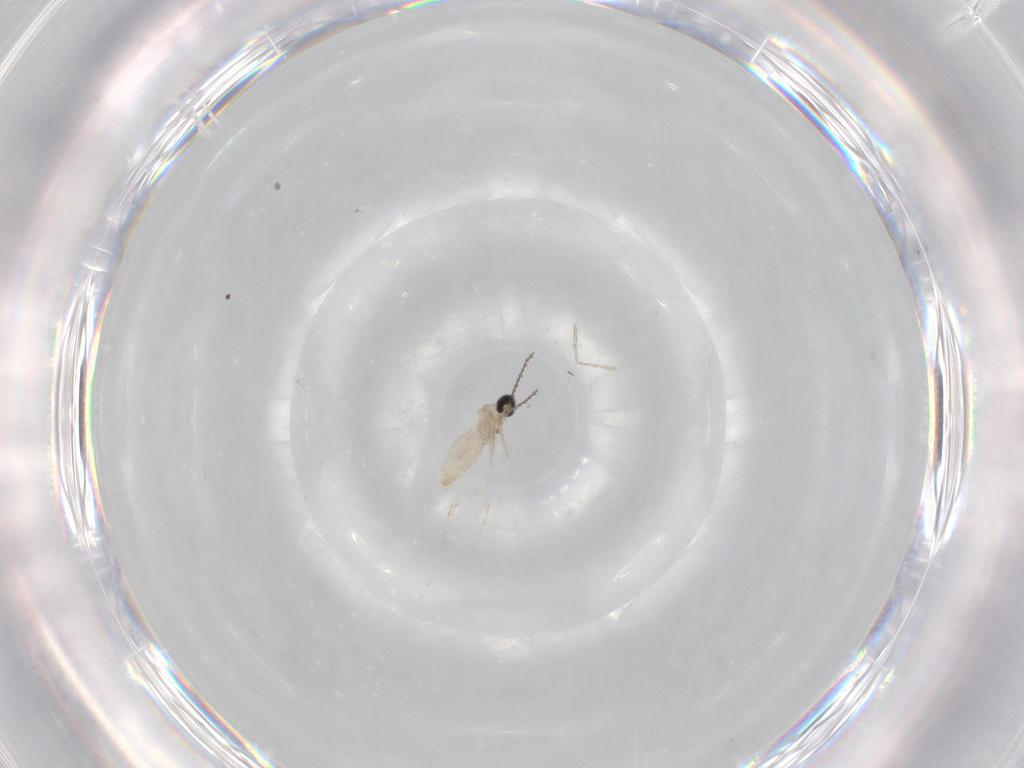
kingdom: Animalia
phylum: Arthropoda
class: Insecta
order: Diptera
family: Cecidomyiidae
